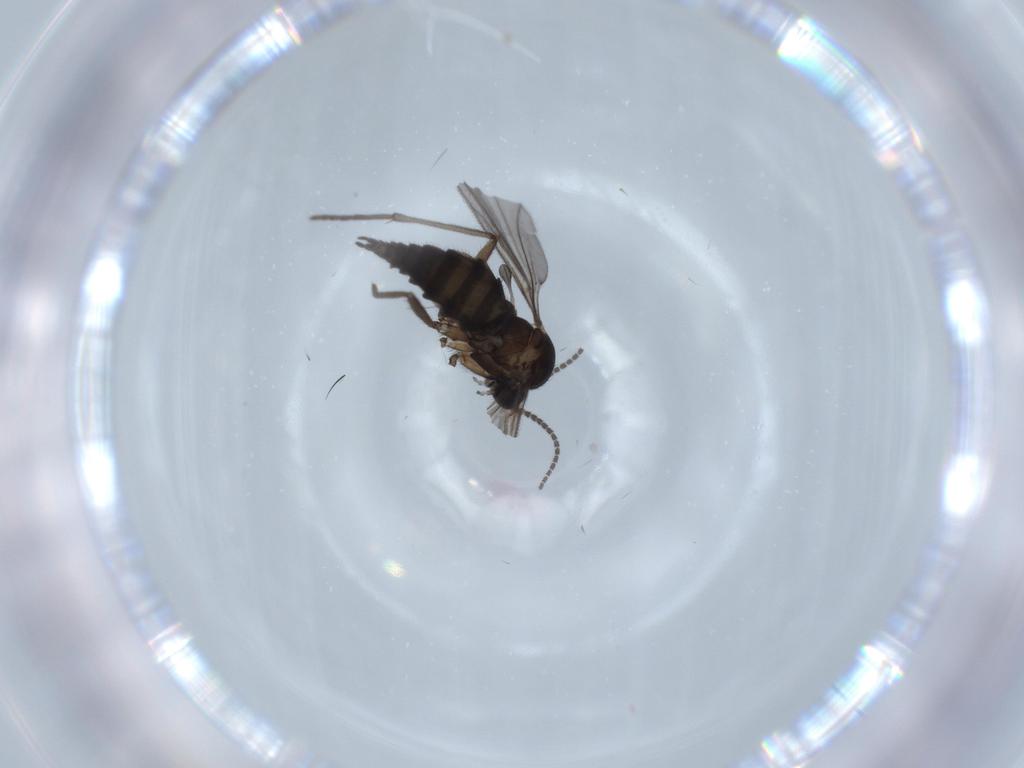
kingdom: Animalia
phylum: Arthropoda
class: Insecta
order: Diptera
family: Sciaridae
